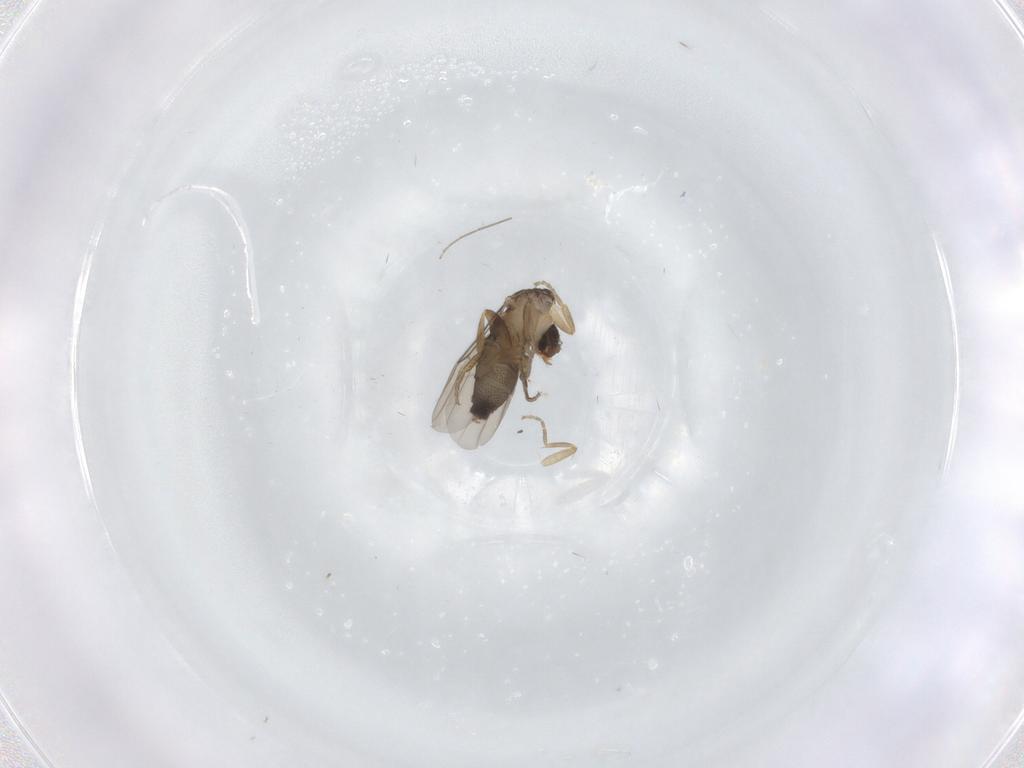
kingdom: Animalia
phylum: Arthropoda
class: Insecta
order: Diptera
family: Phoridae
